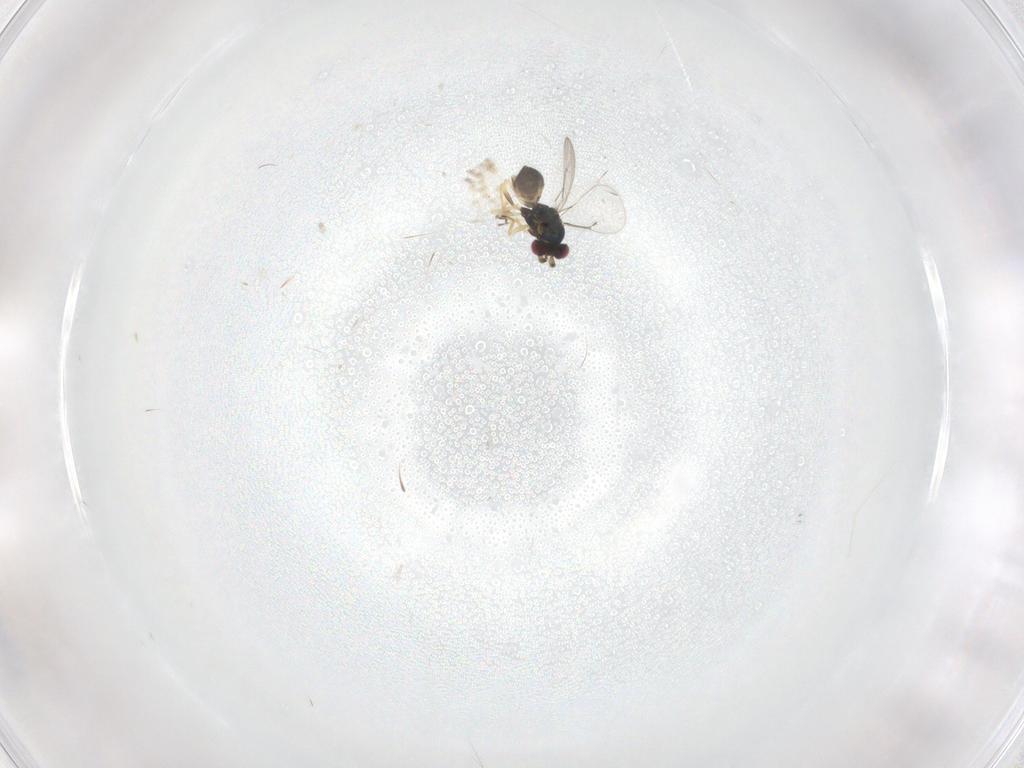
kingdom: Animalia
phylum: Arthropoda
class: Insecta
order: Hymenoptera
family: Eulophidae
